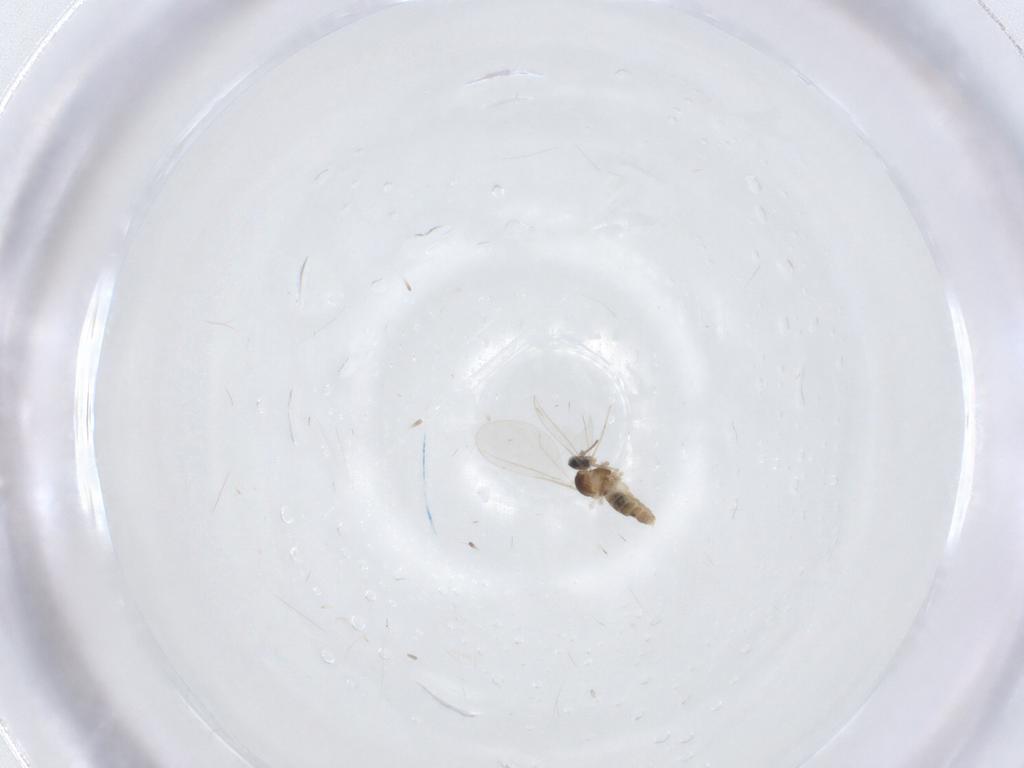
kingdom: Animalia
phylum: Arthropoda
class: Insecta
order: Diptera
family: Cecidomyiidae
